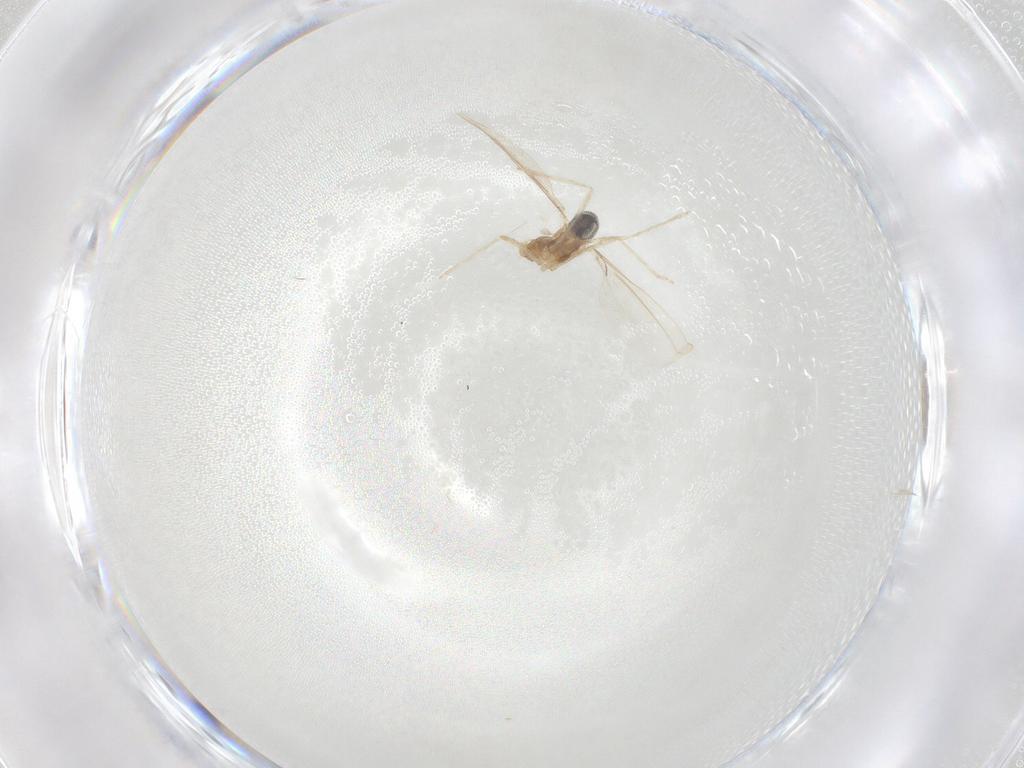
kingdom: Animalia
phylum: Arthropoda
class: Insecta
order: Diptera
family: Cecidomyiidae
